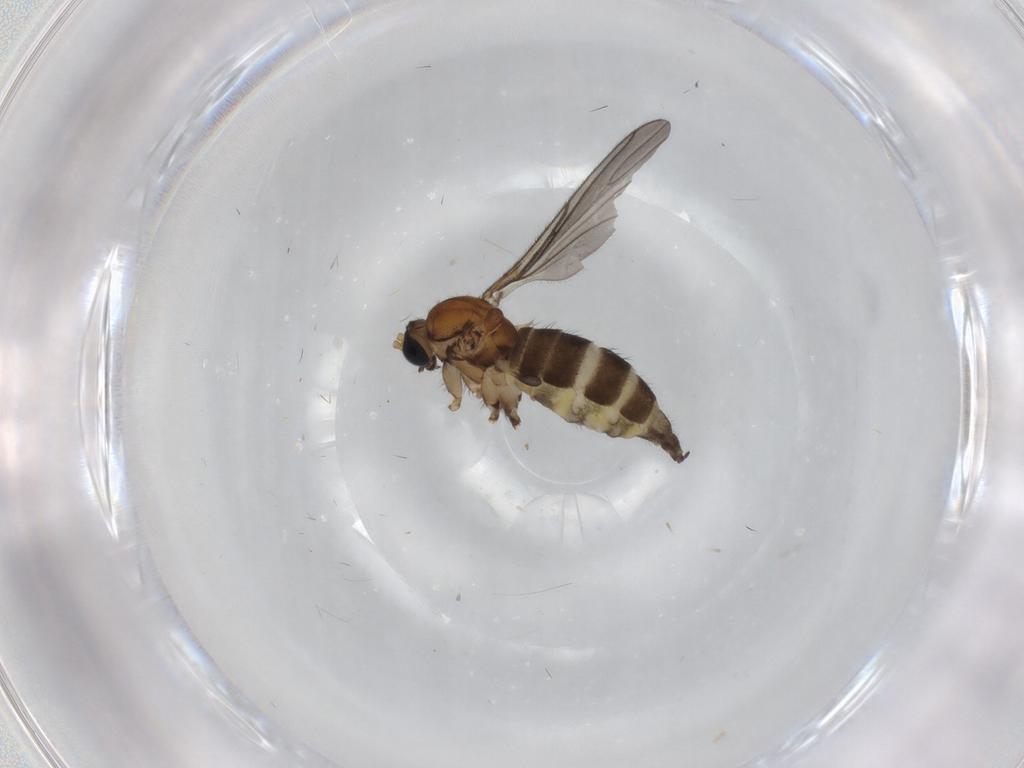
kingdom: Animalia
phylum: Arthropoda
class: Insecta
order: Diptera
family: Sciaridae
